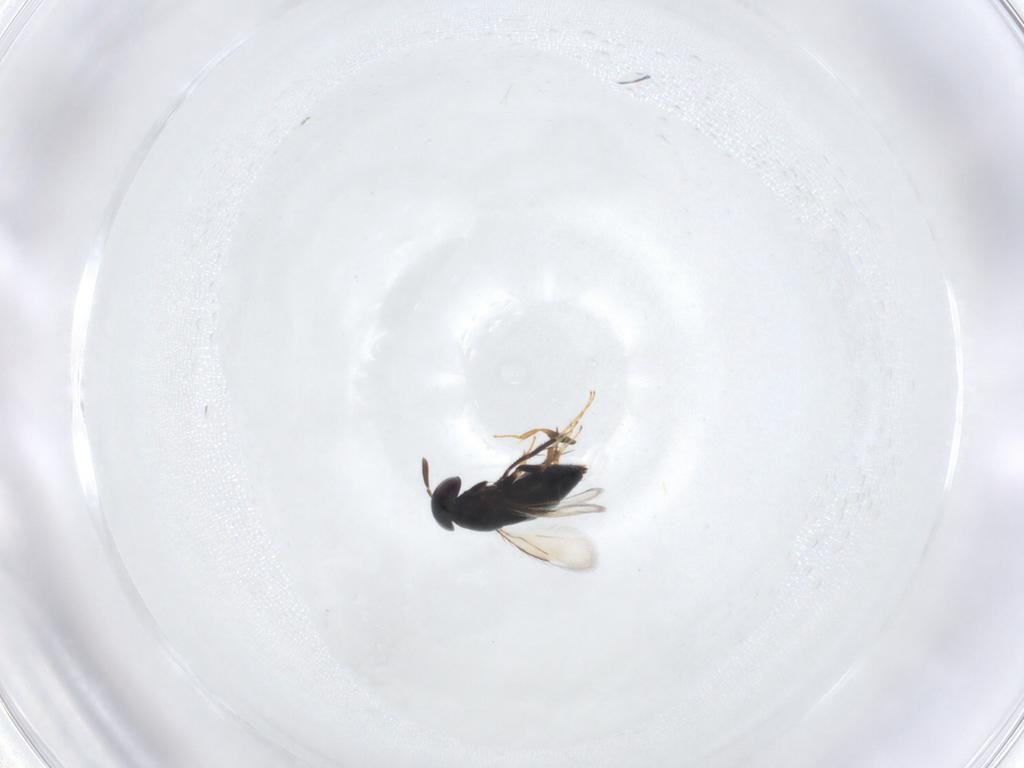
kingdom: Animalia
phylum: Arthropoda
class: Insecta
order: Hymenoptera
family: Signiphoridae
